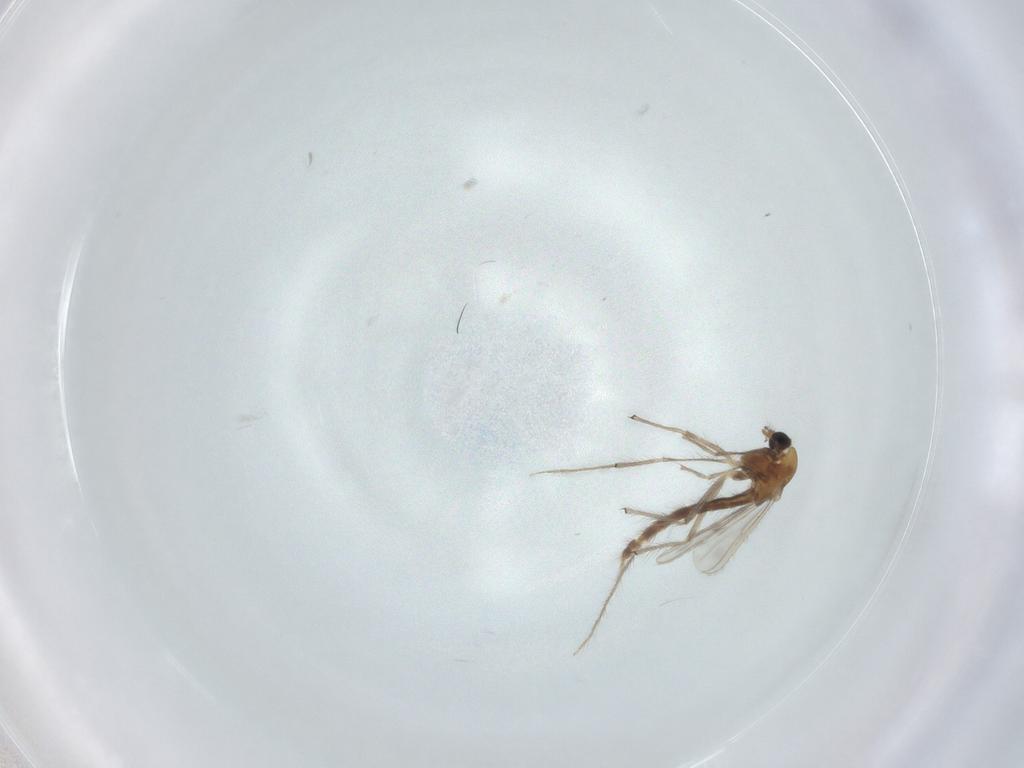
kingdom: Animalia
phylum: Arthropoda
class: Insecta
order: Diptera
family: Chironomidae
